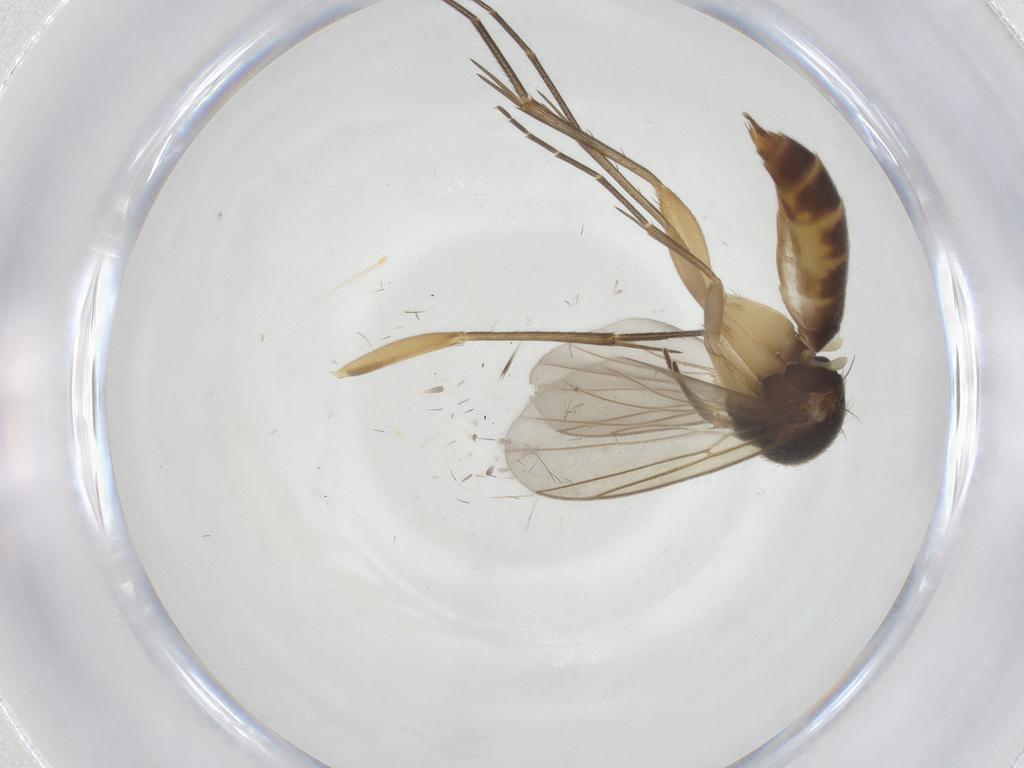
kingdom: Animalia
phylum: Arthropoda
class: Insecta
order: Diptera
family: Mycetophilidae
